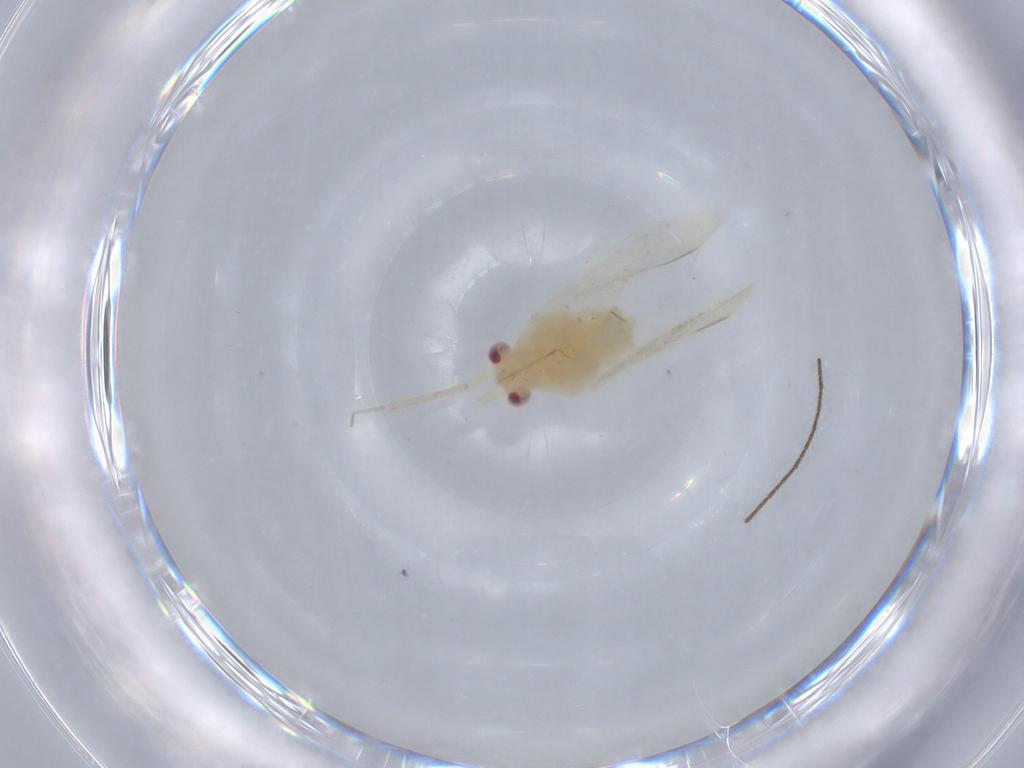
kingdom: Animalia
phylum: Arthropoda
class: Insecta
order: Hemiptera
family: Miridae
